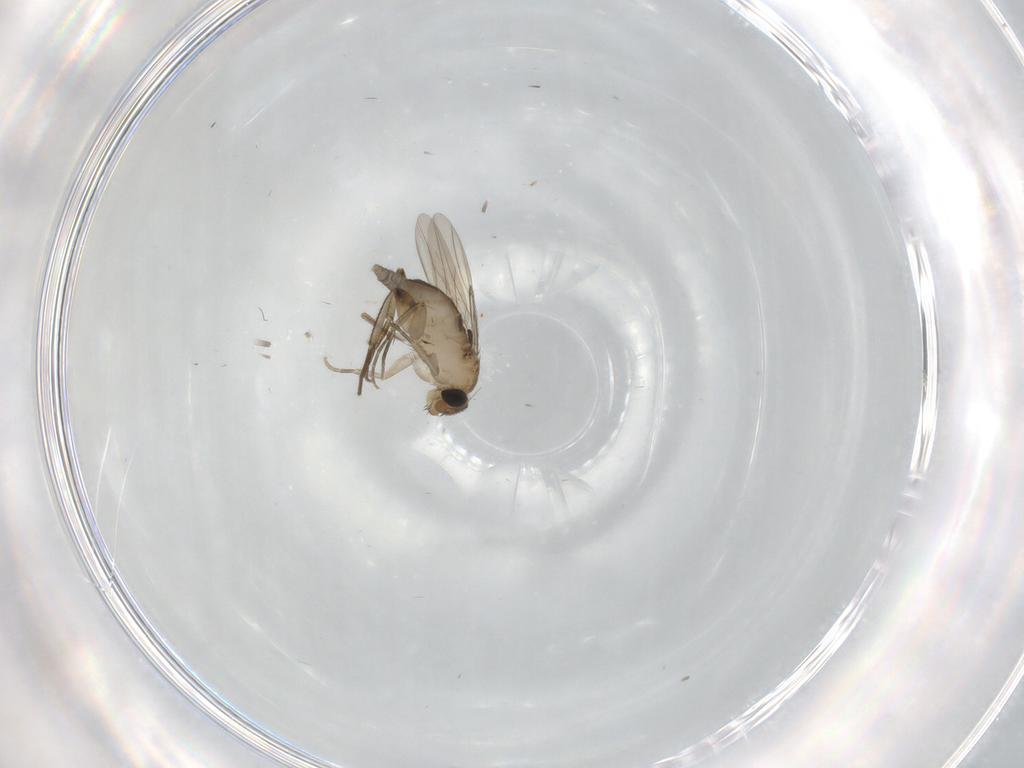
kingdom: Animalia
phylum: Arthropoda
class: Insecta
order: Diptera
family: Phoridae
